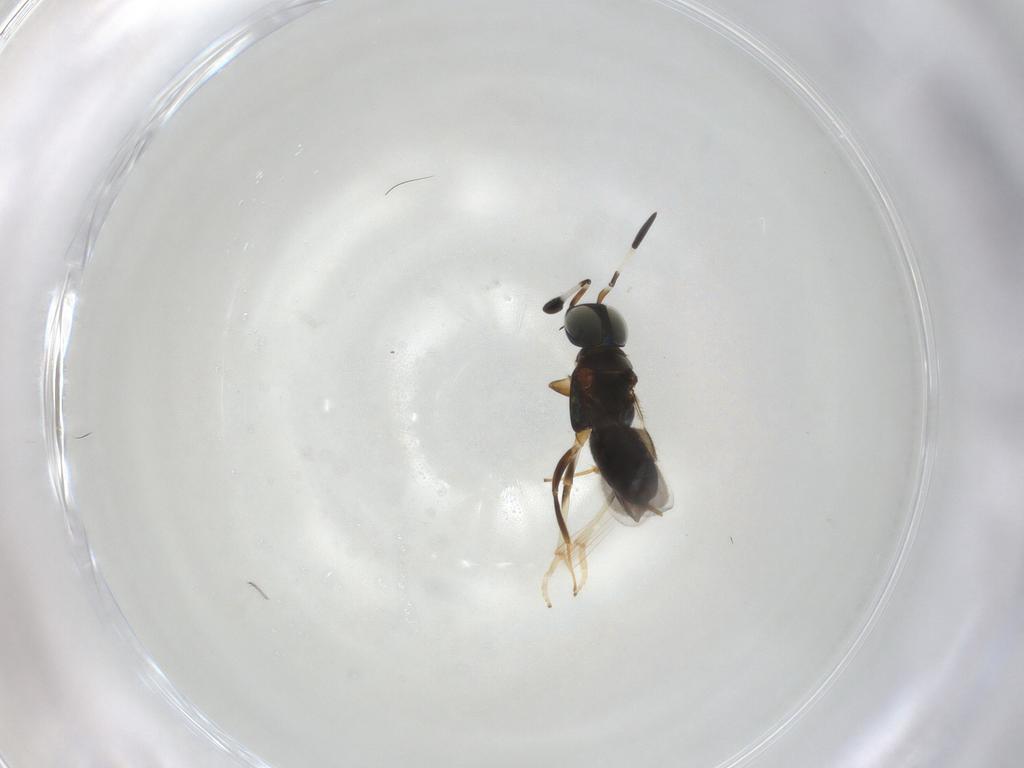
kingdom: Animalia
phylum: Arthropoda
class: Insecta
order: Hymenoptera
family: Encyrtidae
